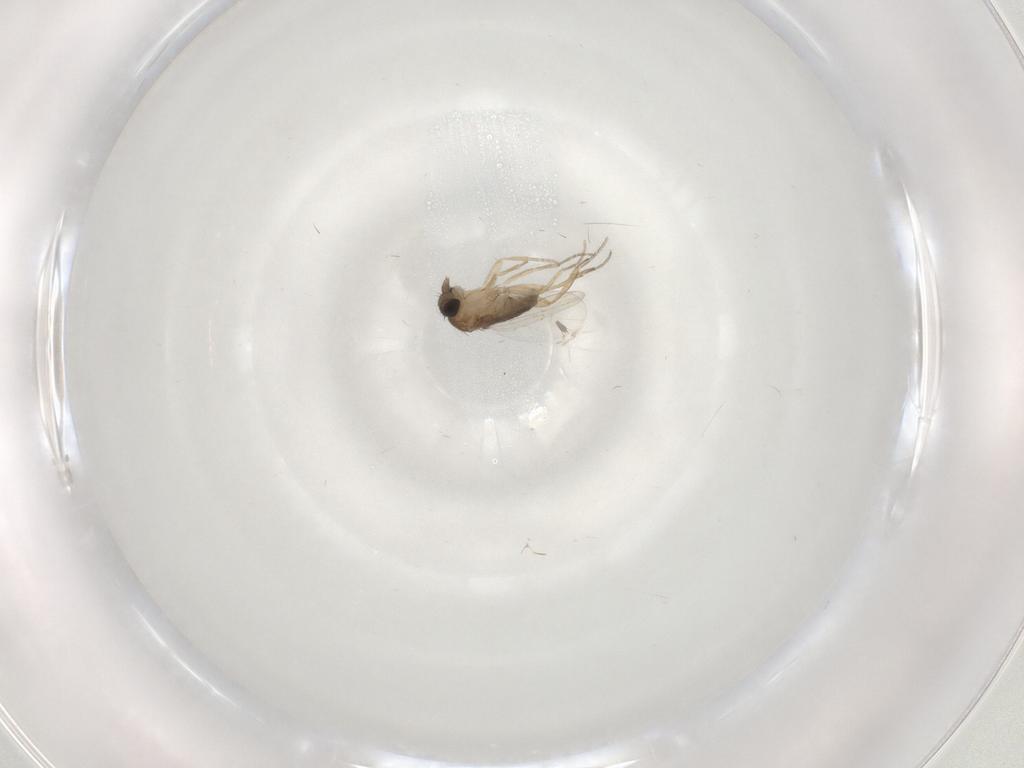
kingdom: Animalia
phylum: Arthropoda
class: Insecta
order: Diptera
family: Phoridae
